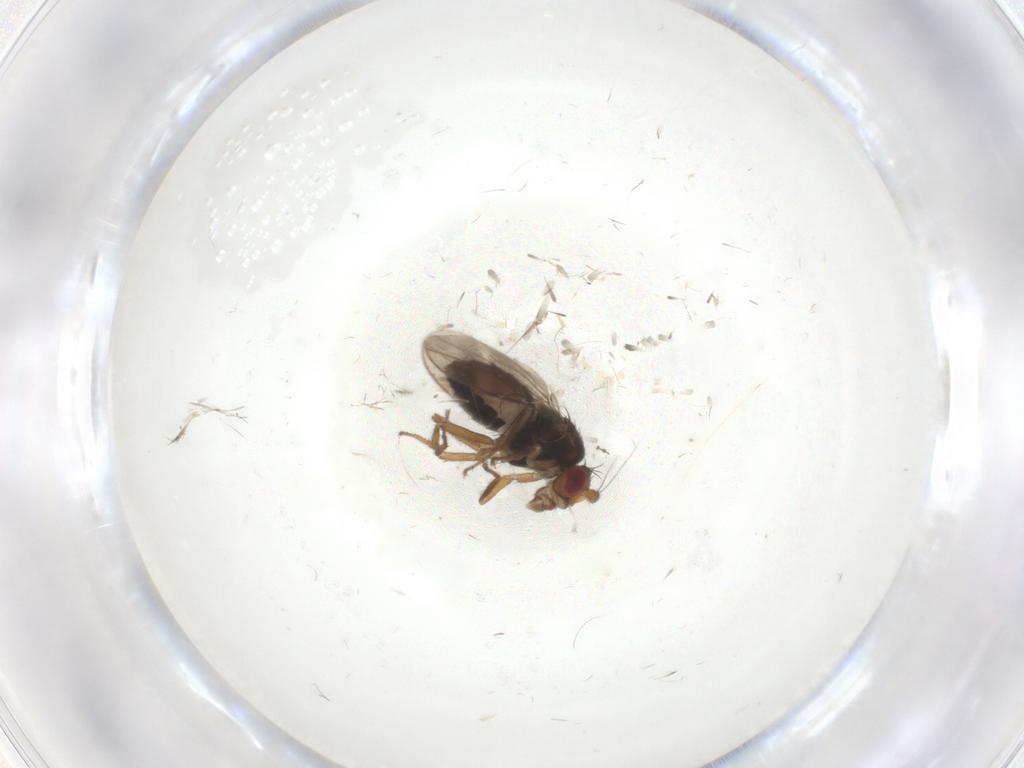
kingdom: Animalia
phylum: Arthropoda
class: Insecta
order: Diptera
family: Sphaeroceridae
